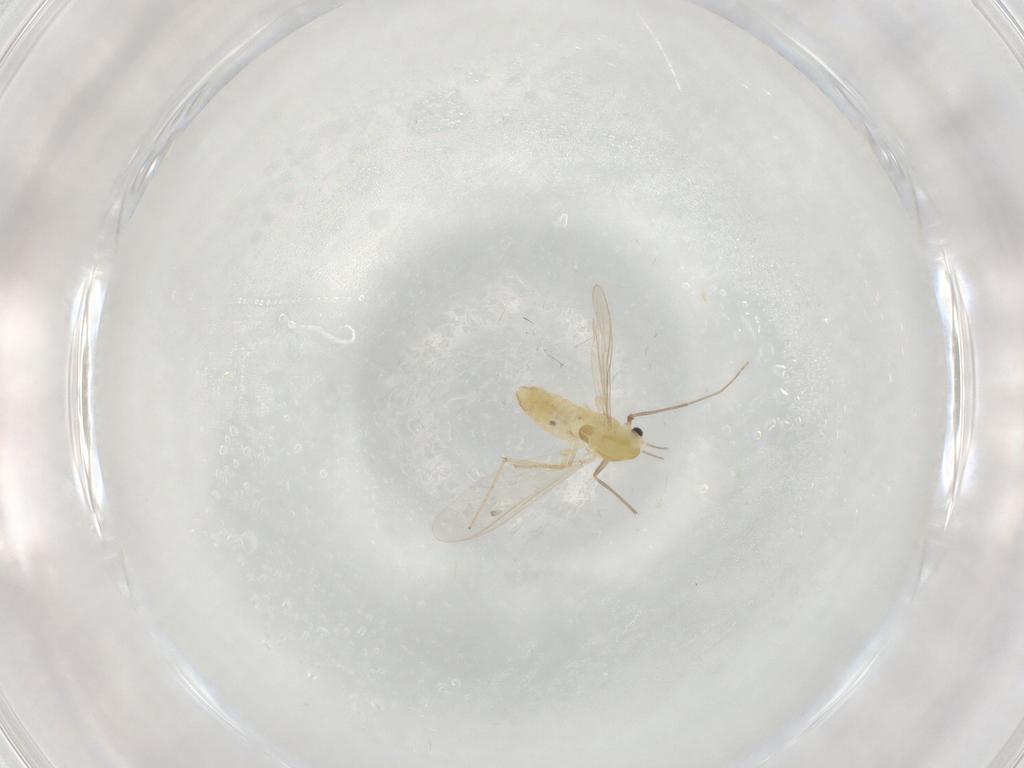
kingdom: Animalia
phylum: Arthropoda
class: Insecta
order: Diptera
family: Chironomidae
